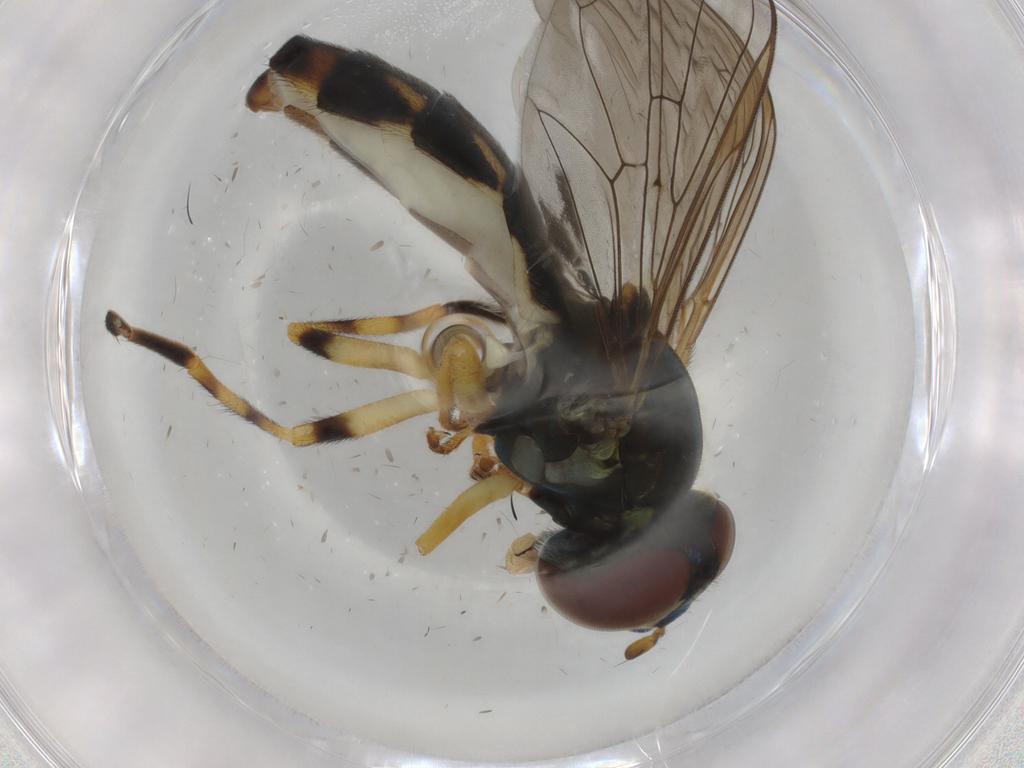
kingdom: Animalia
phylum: Arthropoda
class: Insecta
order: Diptera
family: Syrphidae
